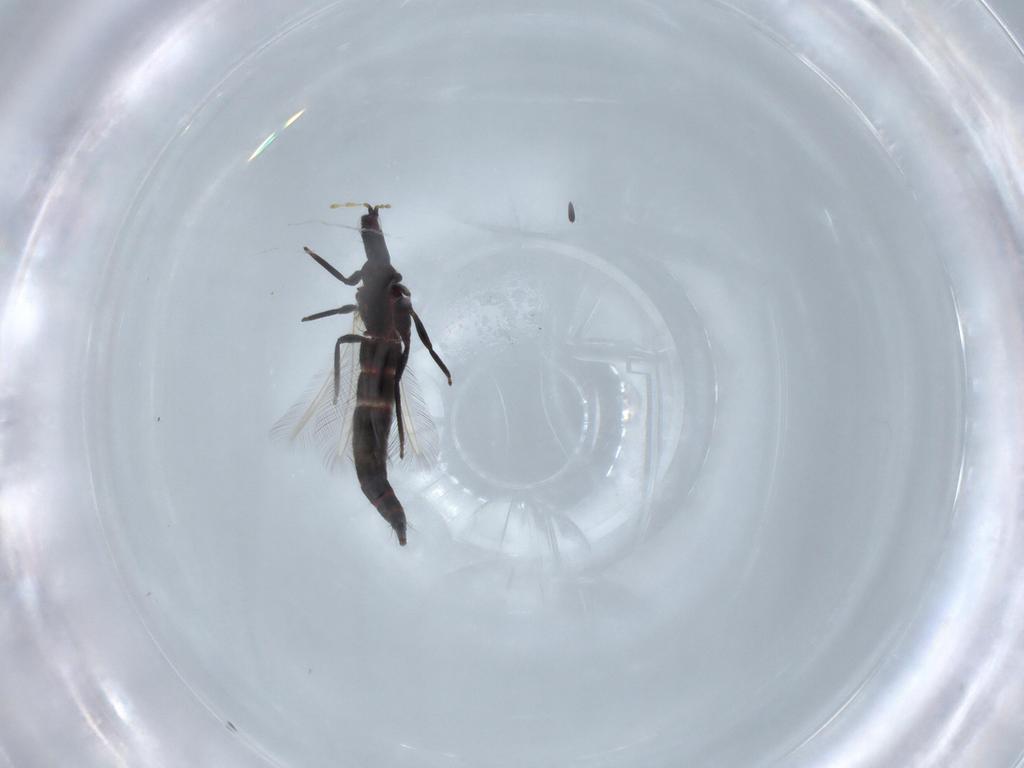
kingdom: Animalia
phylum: Arthropoda
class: Insecta
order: Thysanoptera
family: Phlaeothripidae
